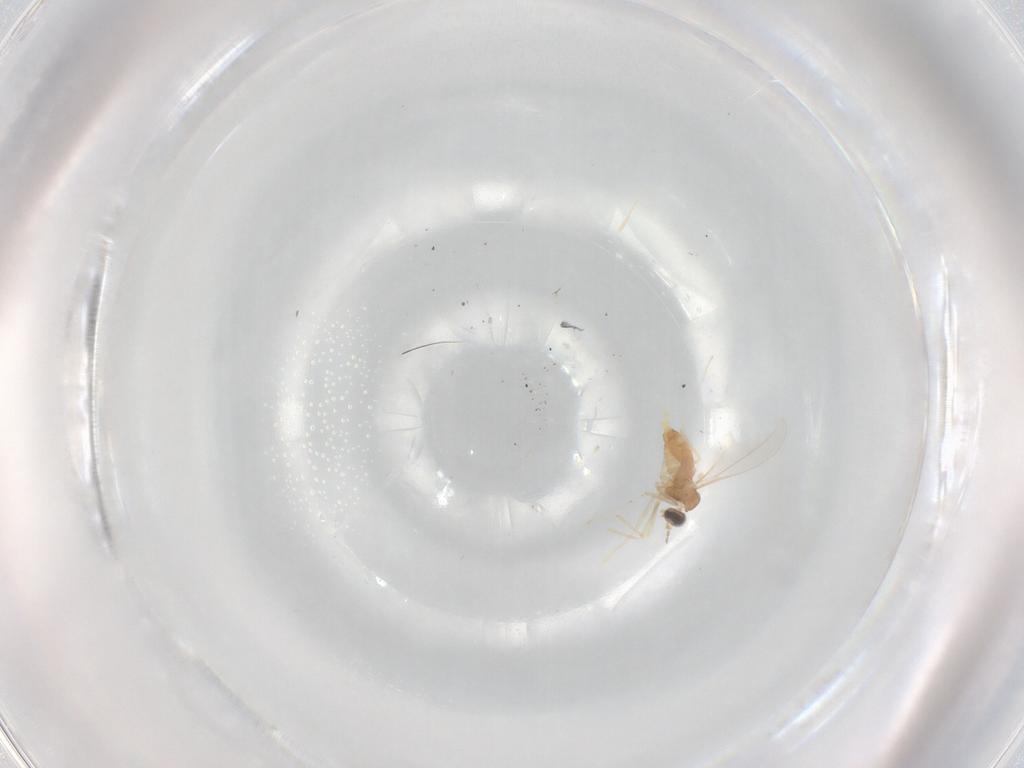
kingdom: Animalia
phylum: Arthropoda
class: Insecta
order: Diptera
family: Cecidomyiidae
